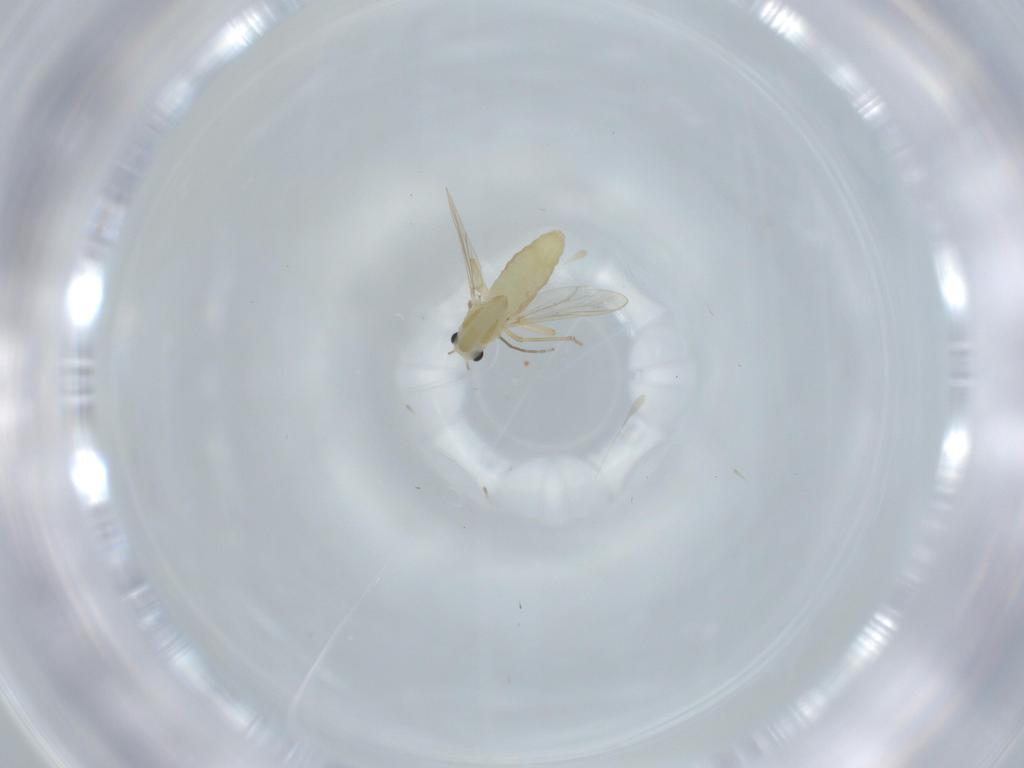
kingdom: Animalia
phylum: Arthropoda
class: Insecta
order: Diptera
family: Chironomidae
